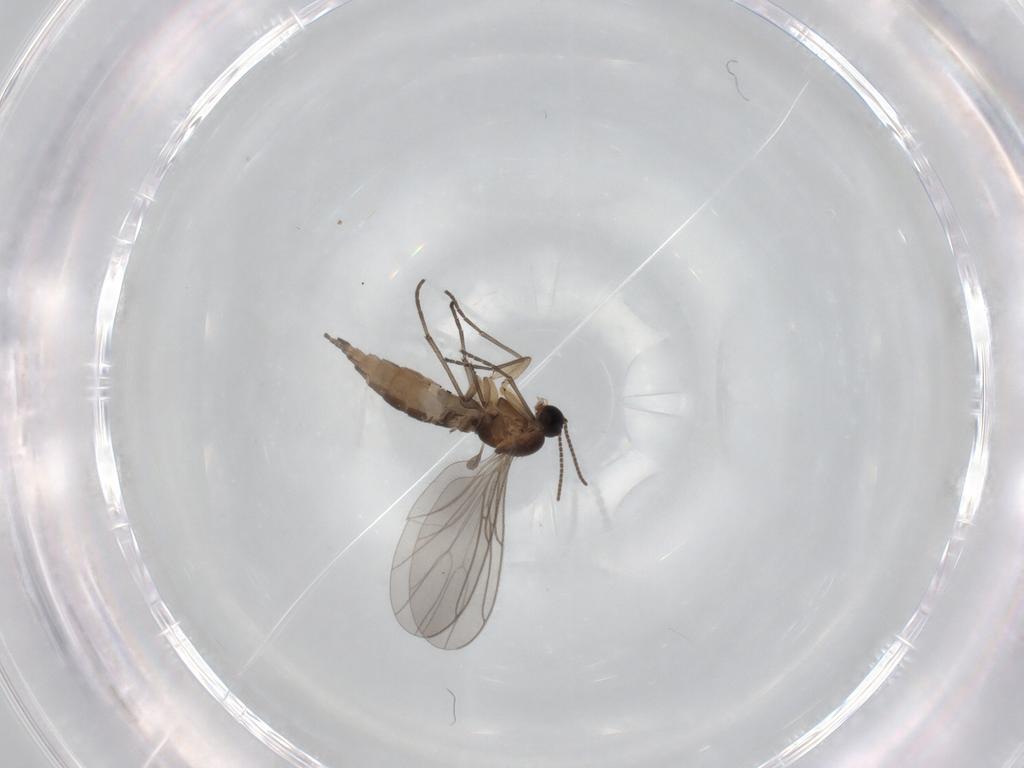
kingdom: Animalia
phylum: Arthropoda
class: Insecta
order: Diptera
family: Sciaridae
